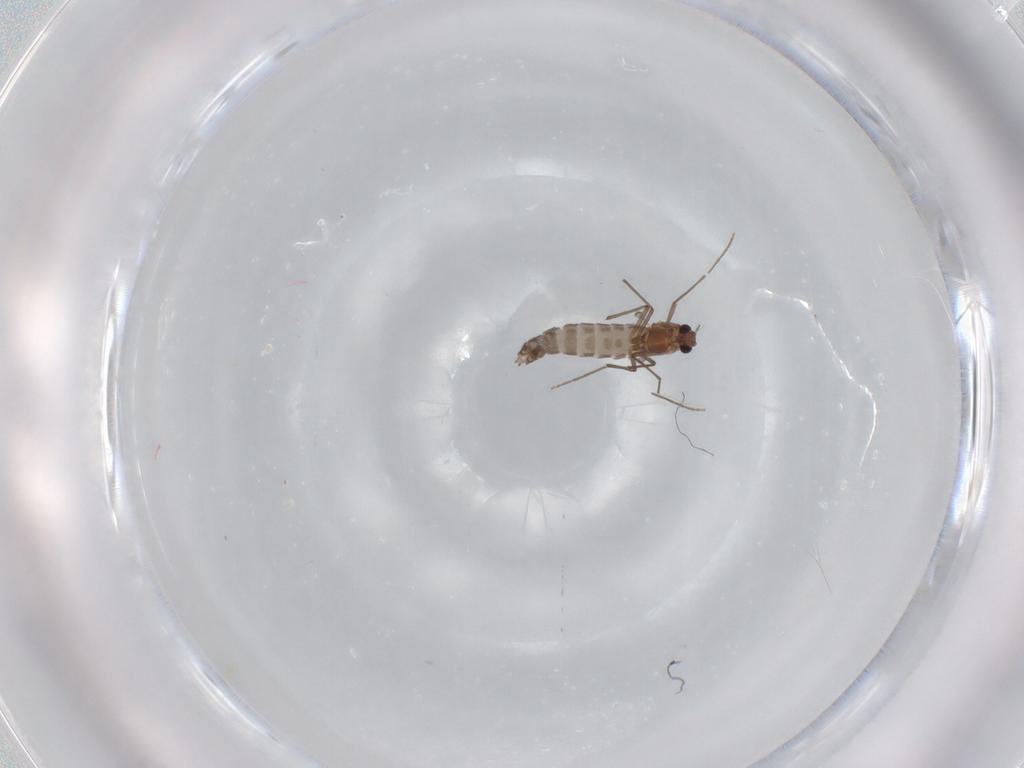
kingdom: Animalia
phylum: Arthropoda
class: Insecta
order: Diptera
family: Chironomidae
